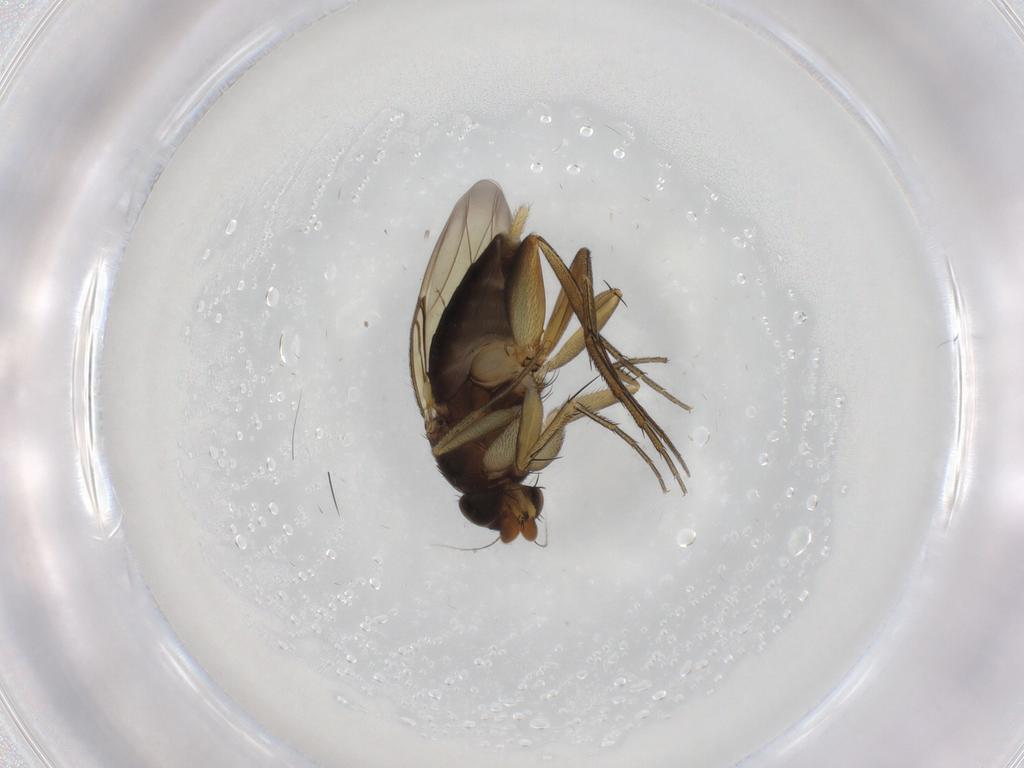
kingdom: Animalia
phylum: Arthropoda
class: Insecta
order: Diptera
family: Phoridae
